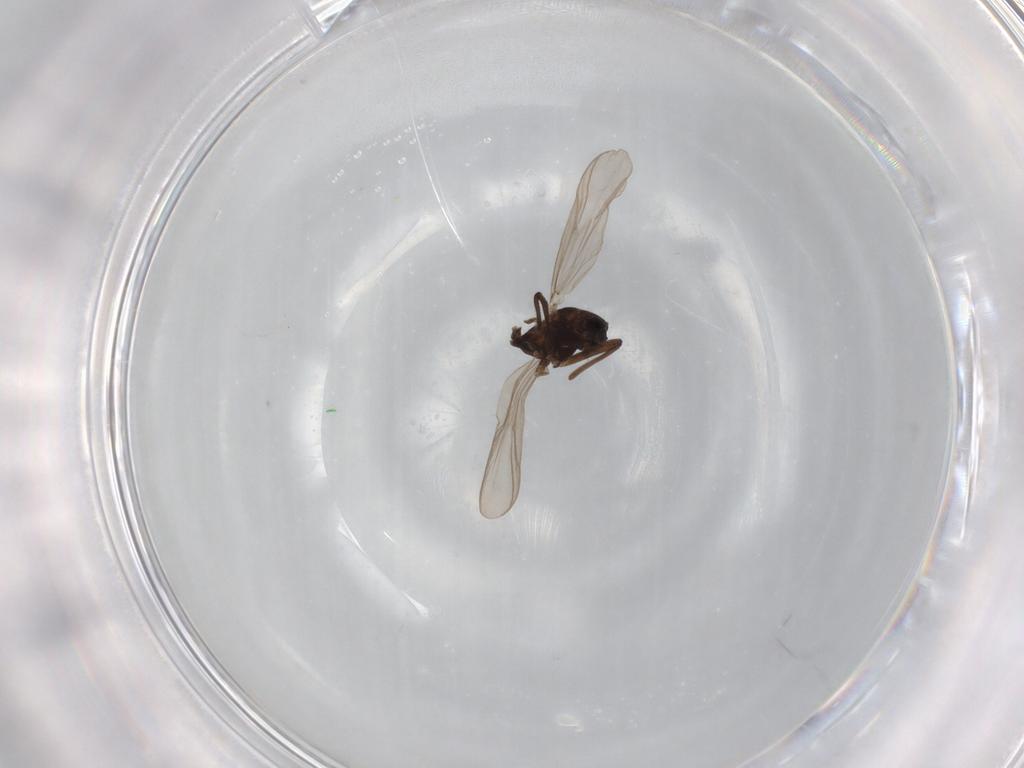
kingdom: Animalia
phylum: Arthropoda
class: Insecta
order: Diptera
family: Chironomidae
